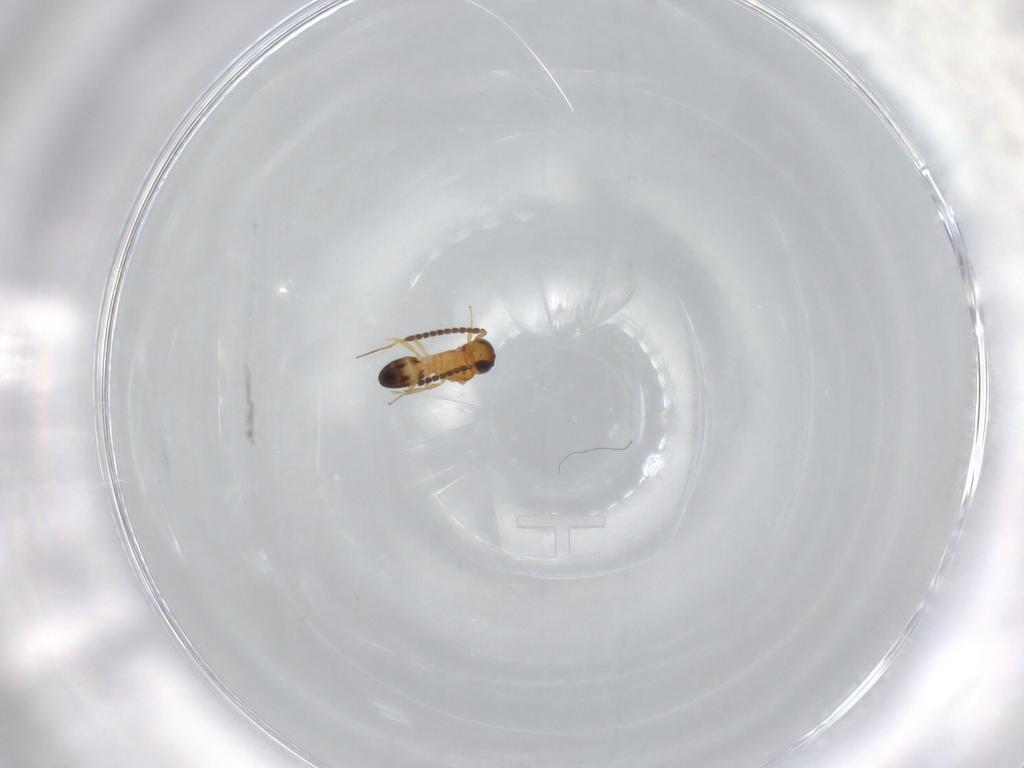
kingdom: Animalia
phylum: Arthropoda
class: Insecta
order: Hymenoptera
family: Scelionidae
